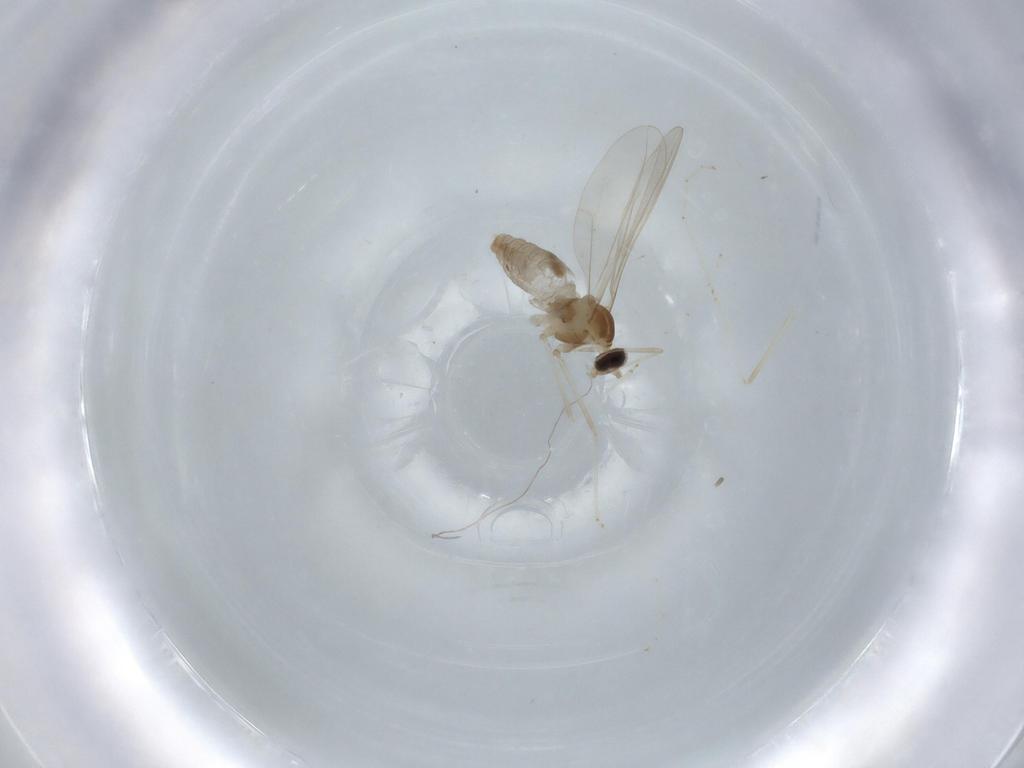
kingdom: Animalia
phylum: Arthropoda
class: Insecta
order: Diptera
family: Cecidomyiidae
